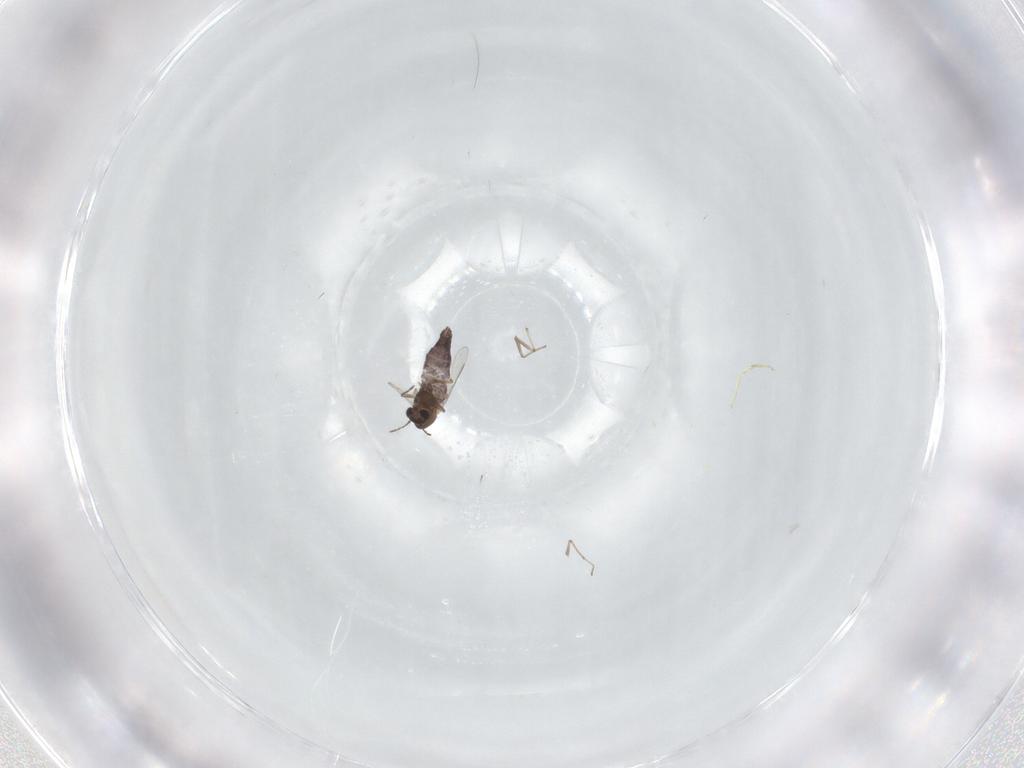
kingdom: Animalia
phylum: Arthropoda
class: Insecta
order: Diptera
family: Chironomidae
